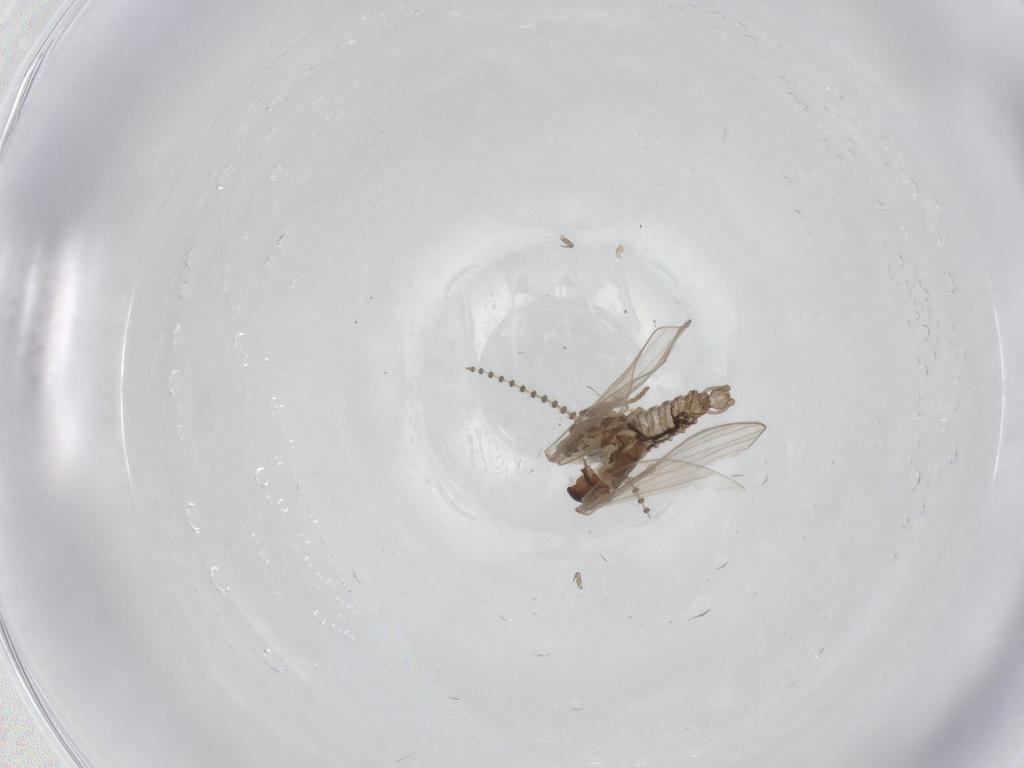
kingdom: Animalia
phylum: Arthropoda
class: Insecta
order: Diptera
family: Psychodidae
